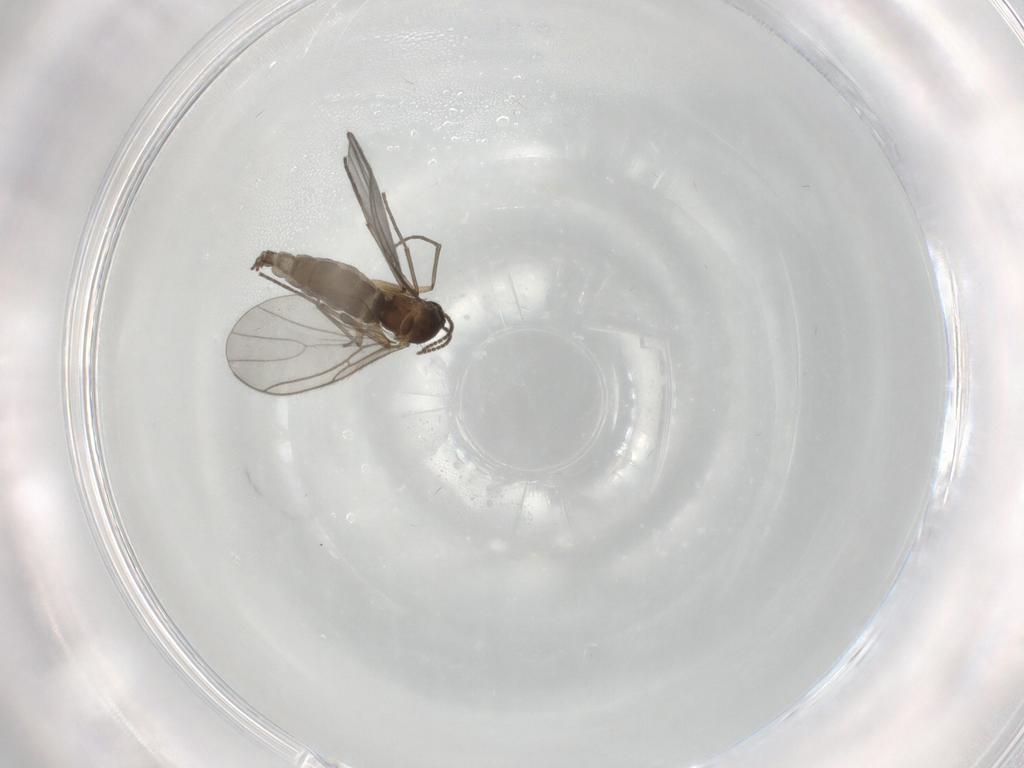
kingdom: Animalia
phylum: Arthropoda
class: Insecta
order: Diptera
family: Sciaridae
